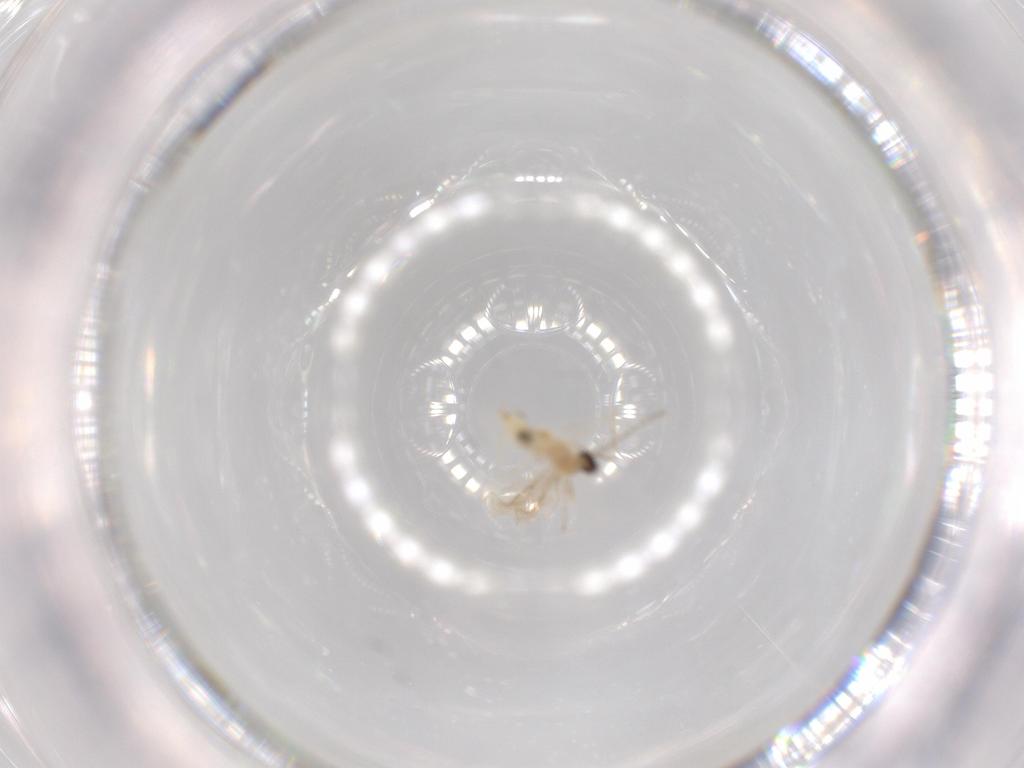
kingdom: Animalia
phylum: Arthropoda
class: Insecta
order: Diptera
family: Cecidomyiidae
